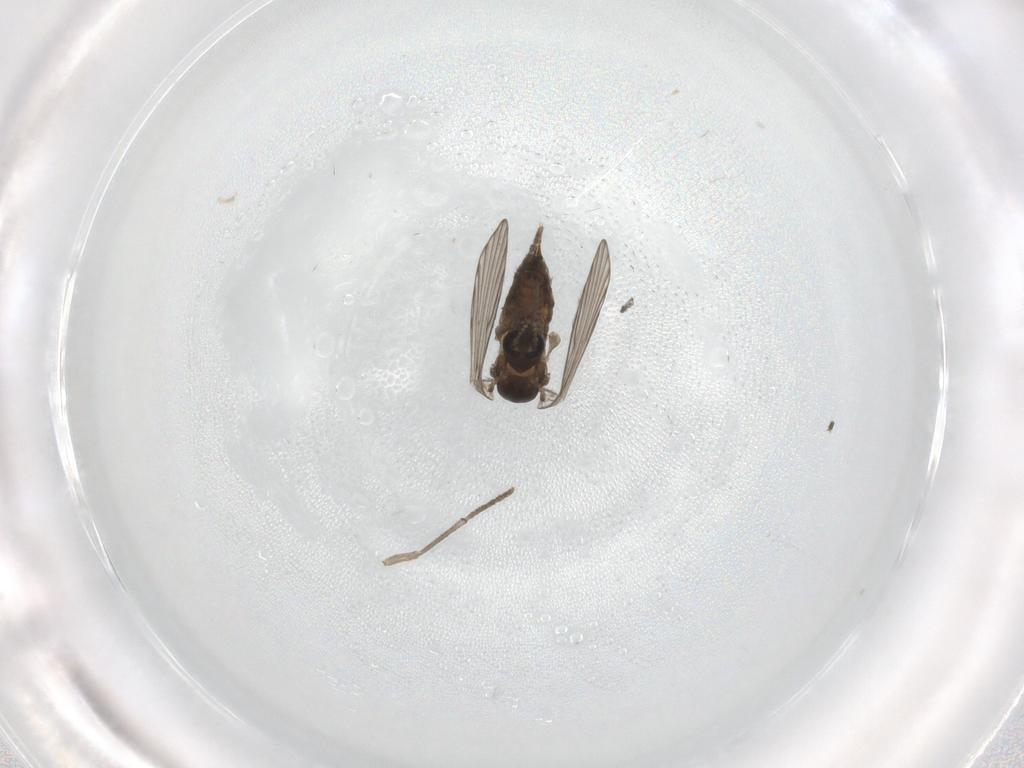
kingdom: Animalia
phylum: Arthropoda
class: Insecta
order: Diptera
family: Psychodidae
